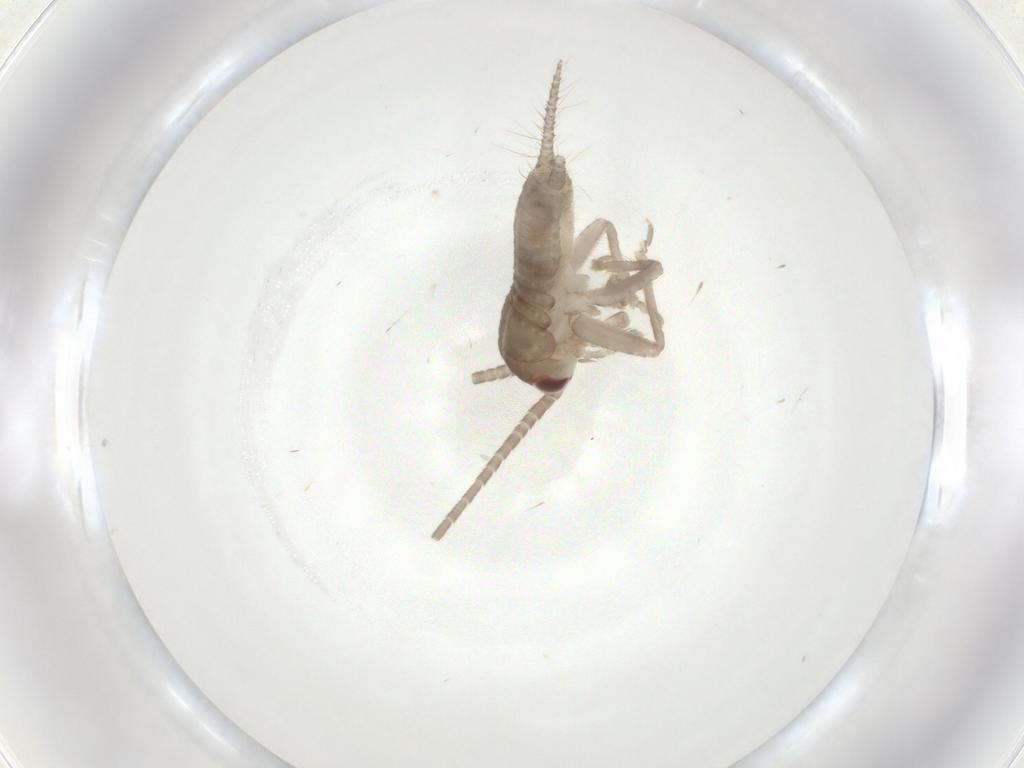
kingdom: Animalia
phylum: Arthropoda
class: Insecta
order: Orthoptera
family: Gryllidae
